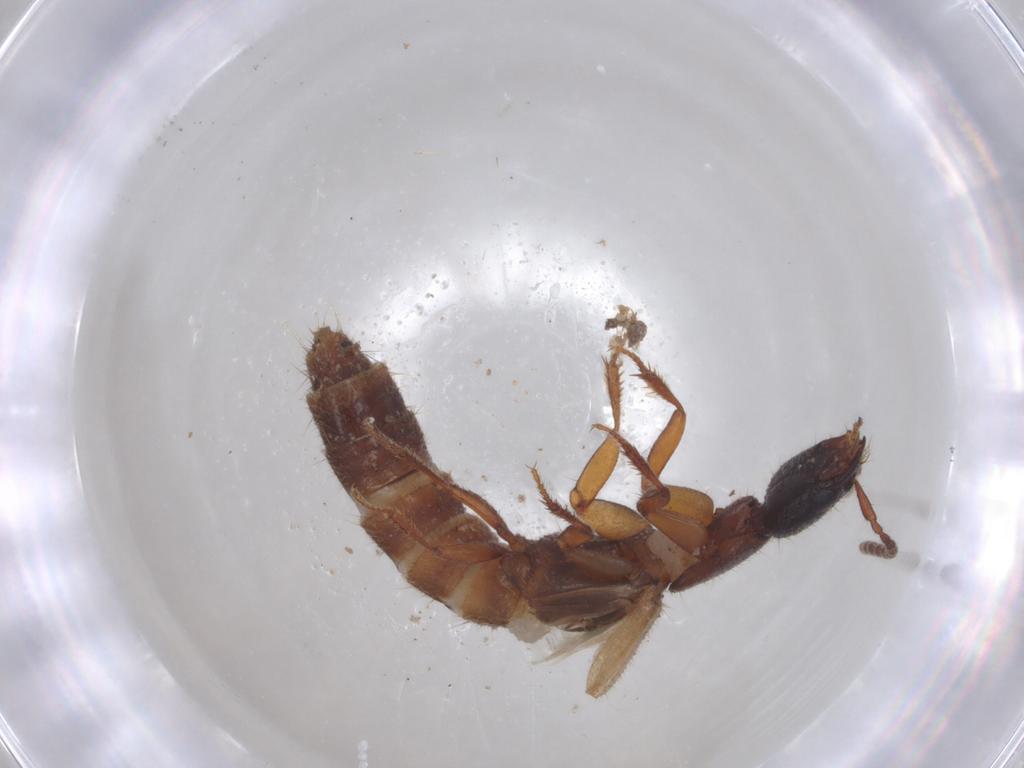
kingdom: Animalia
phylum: Arthropoda
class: Insecta
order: Coleoptera
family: Staphylinidae
